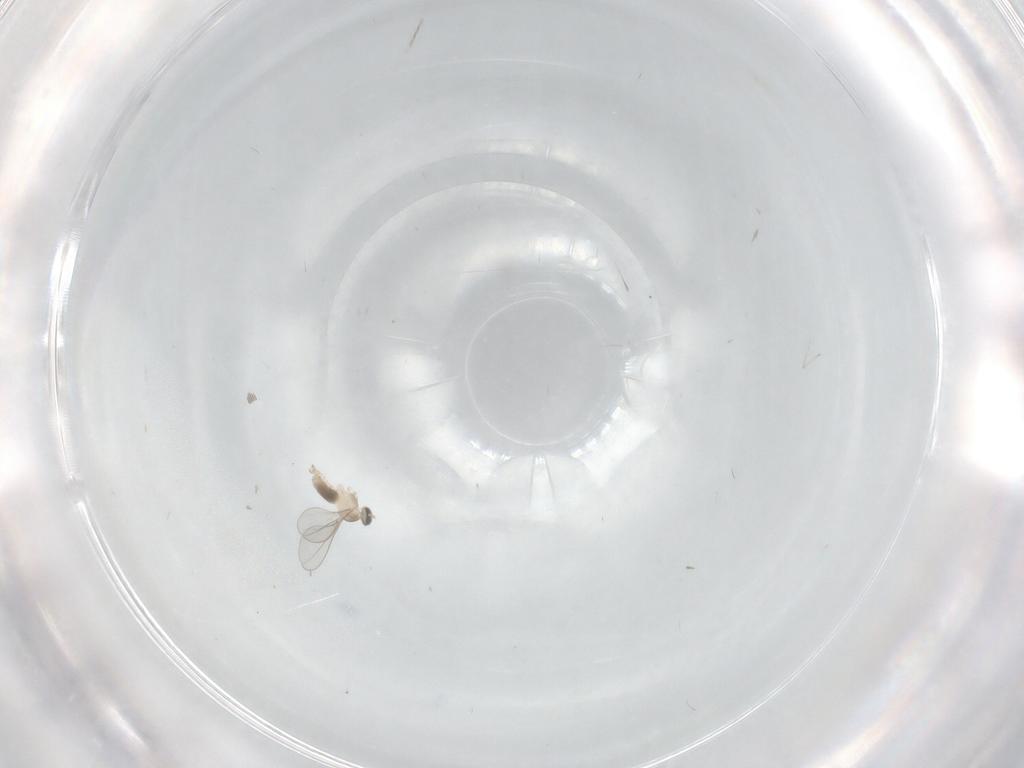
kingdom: Animalia
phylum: Arthropoda
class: Insecta
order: Diptera
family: Cecidomyiidae
